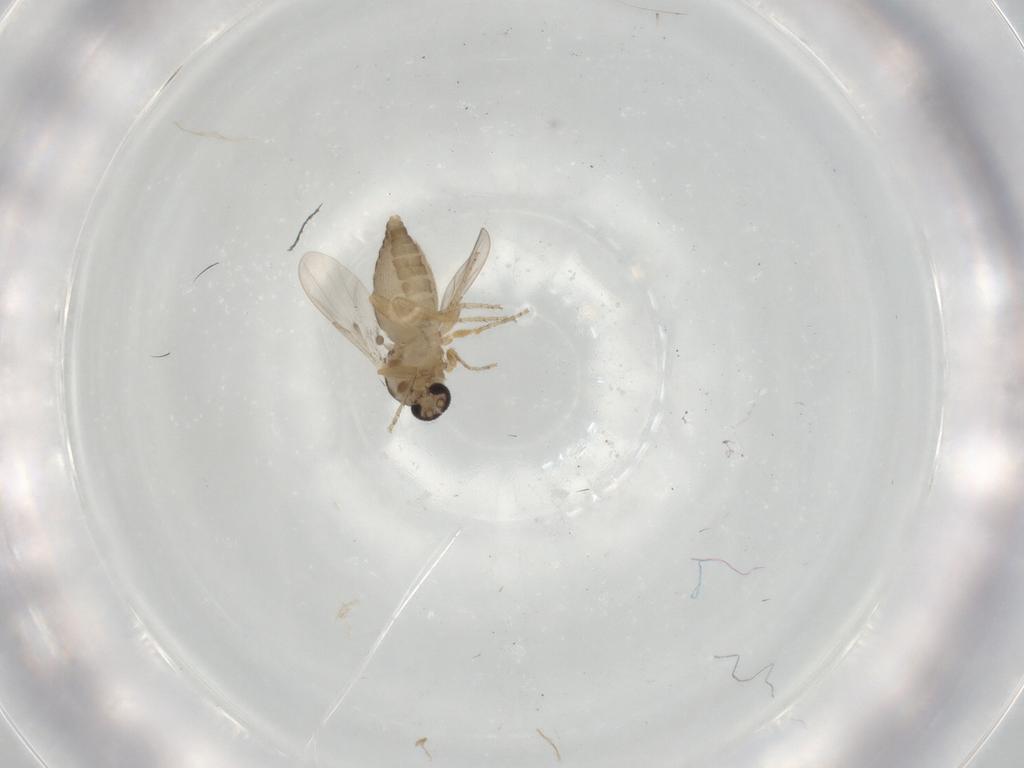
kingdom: Animalia
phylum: Arthropoda
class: Insecta
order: Diptera
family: Ceratopogonidae
